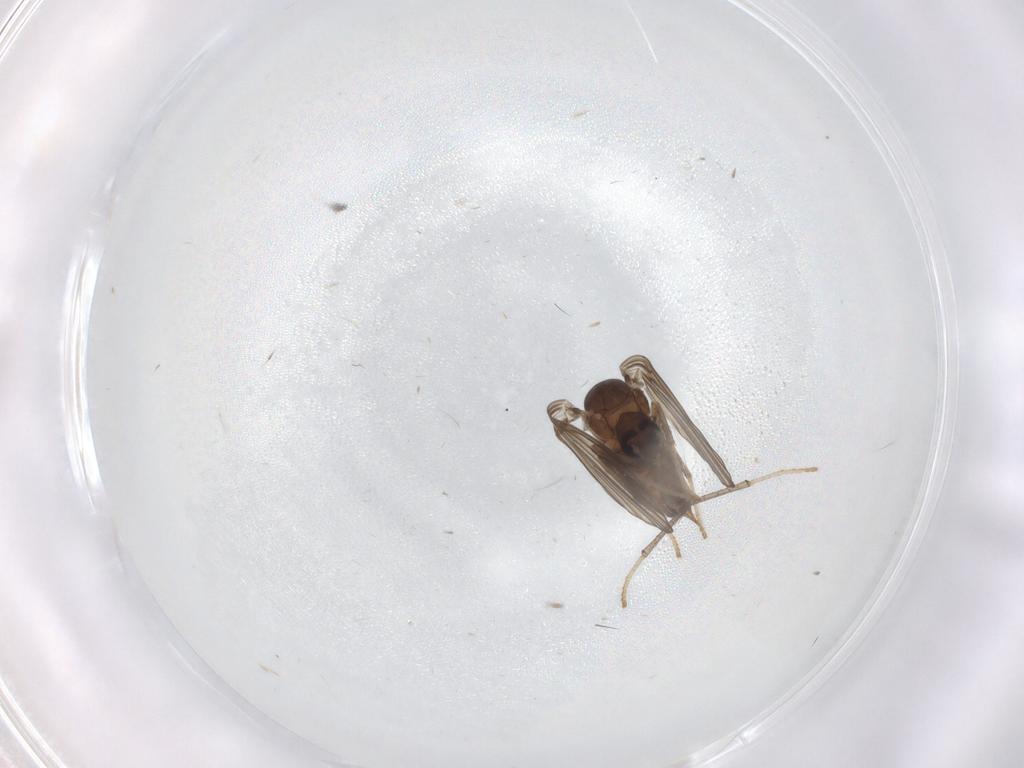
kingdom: Animalia
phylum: Arthropoda
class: Insecta
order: Diptera
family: Psychodidae
